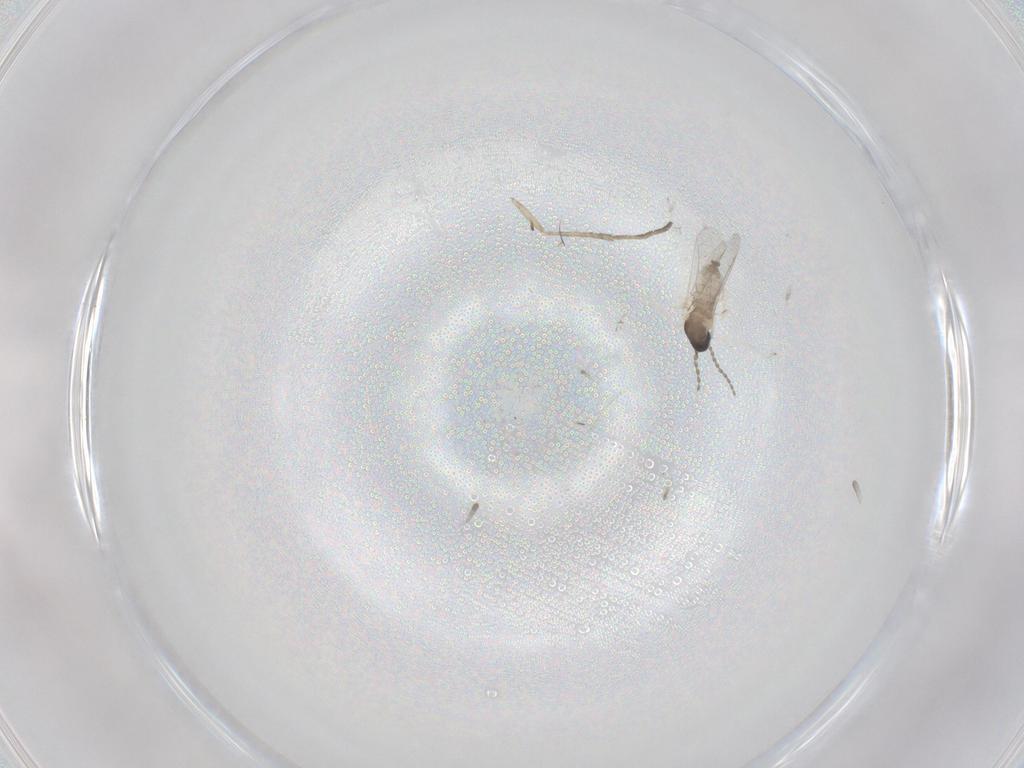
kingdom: Animalia
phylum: Arthropoda
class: Insecta
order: Diptera
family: Cecidomyiidae
